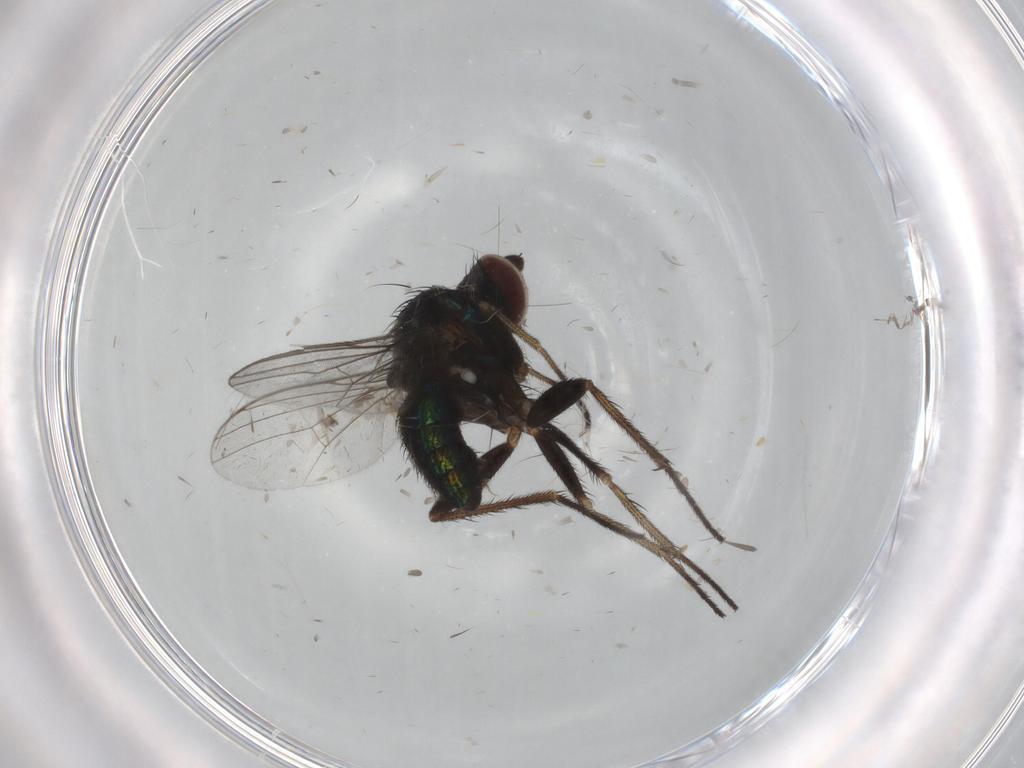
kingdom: Animalia
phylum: Arthropoda
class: Insecta
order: Diptera
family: Dolichopodidae
